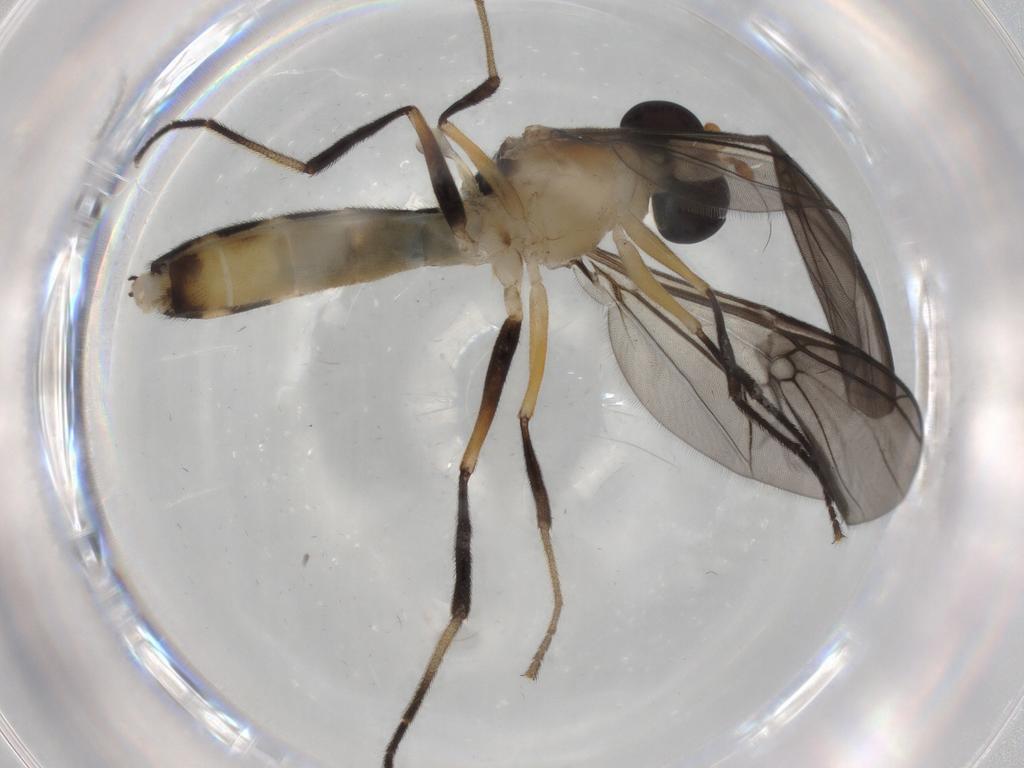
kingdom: Animalia
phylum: Arthropoda
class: Insecta
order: Diptera
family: Phoridae
